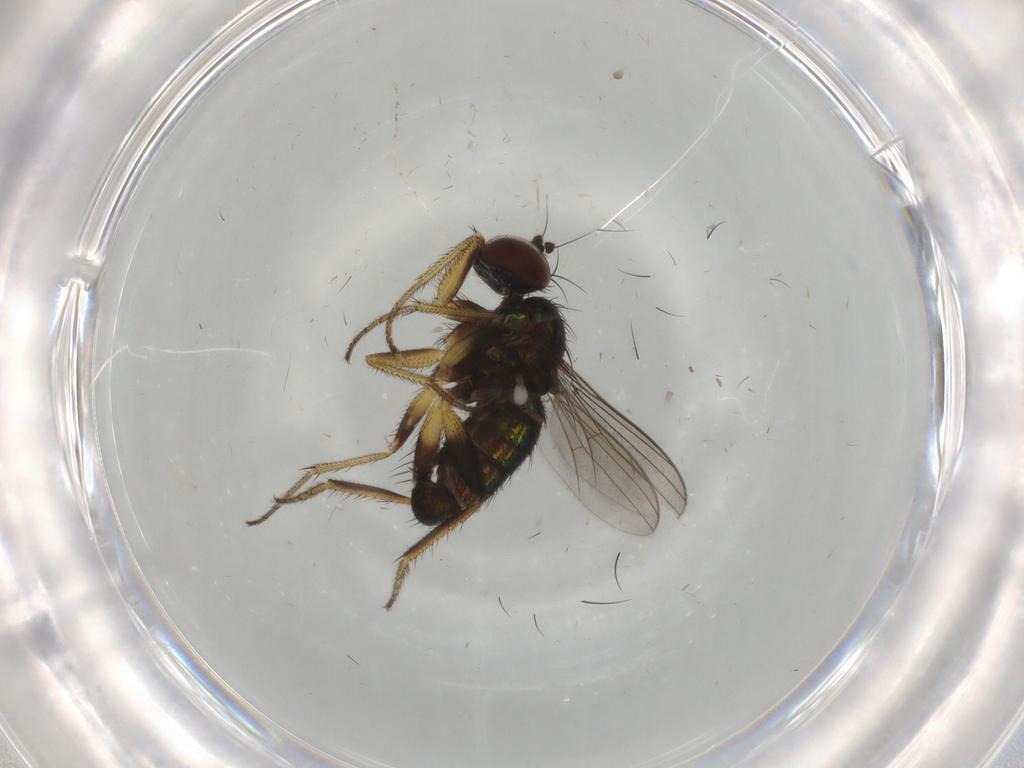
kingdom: Animalia
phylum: Arthropoda
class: Insecta
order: Diptera
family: Dolichopodidae
